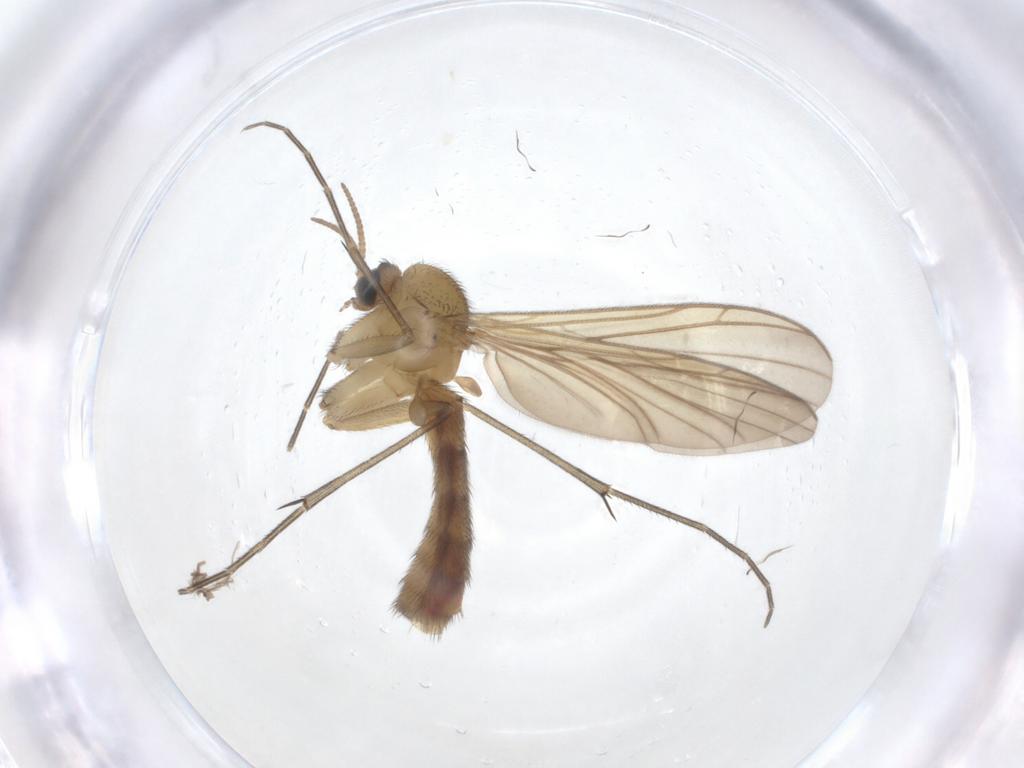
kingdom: Animalia
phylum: Arthropoda
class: Insecta
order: Diptera
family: Keroplatidae
